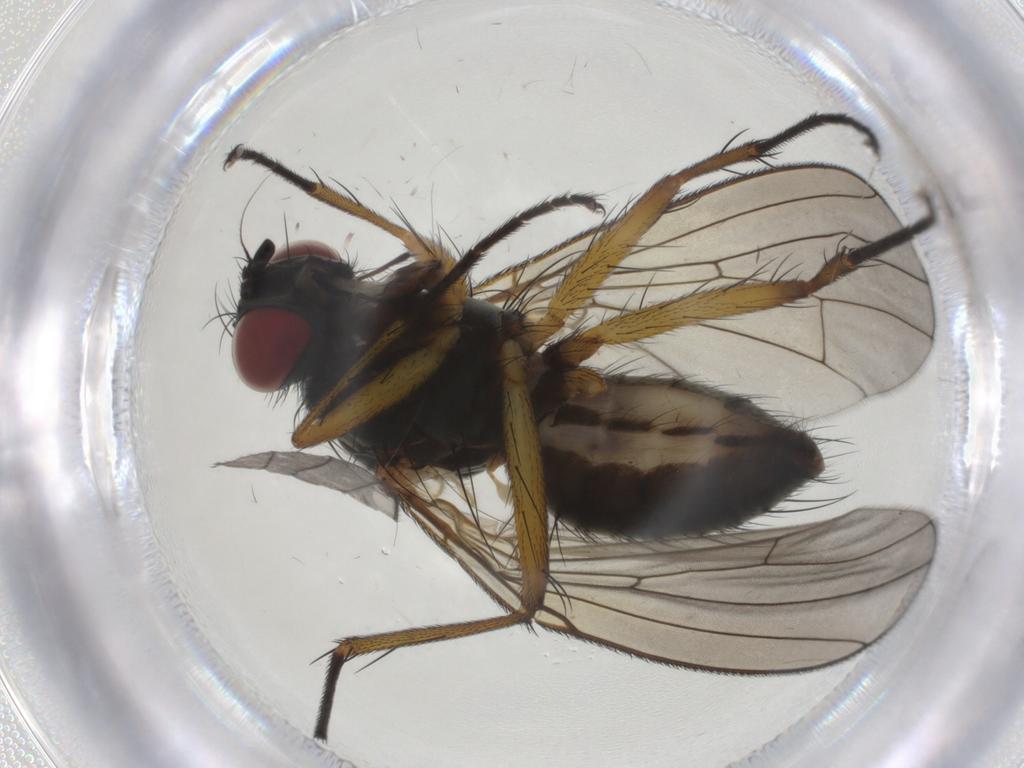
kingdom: Animalia
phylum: Arthropoda
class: Insecta
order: Diptera
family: Muscidae
